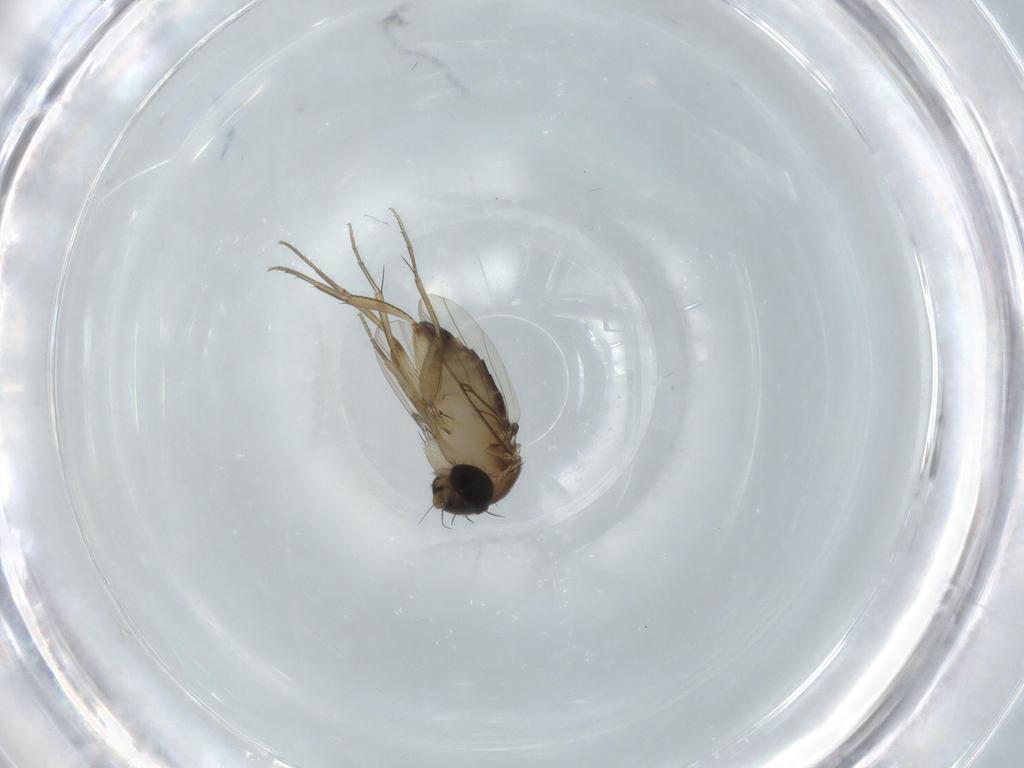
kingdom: Animalia
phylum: Arthropoda
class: Insecta
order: Diptera
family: Phoridae
